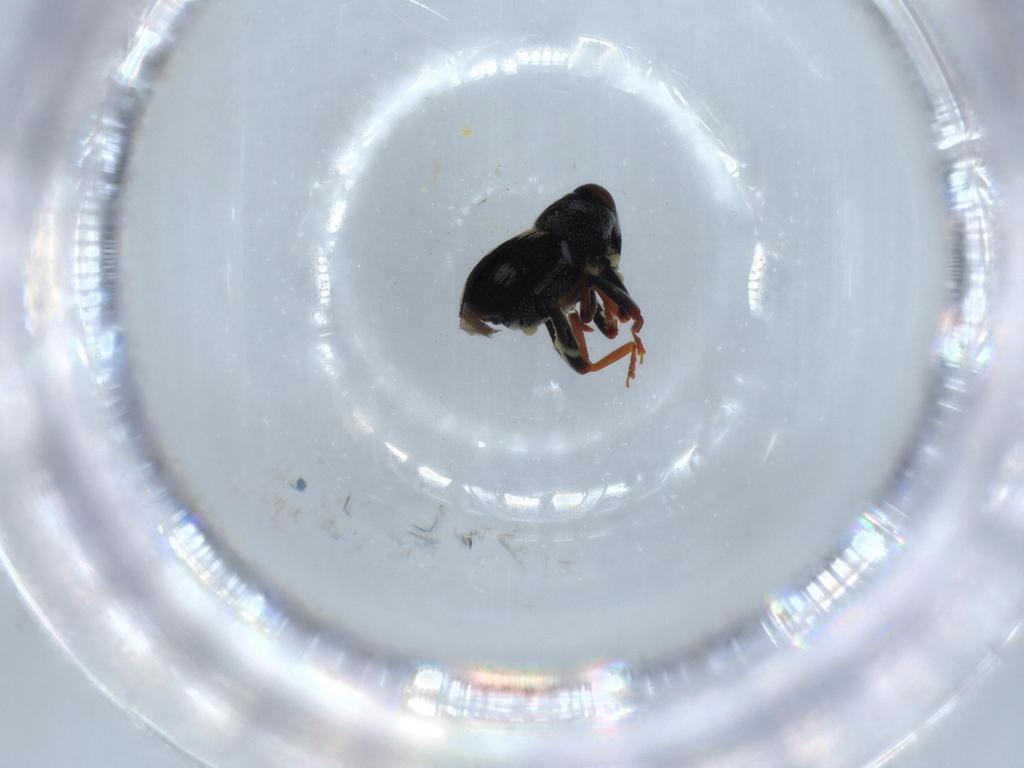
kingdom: Animalia
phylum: Arthropoda
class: Insecta
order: Coleoptera
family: Curculionidae
